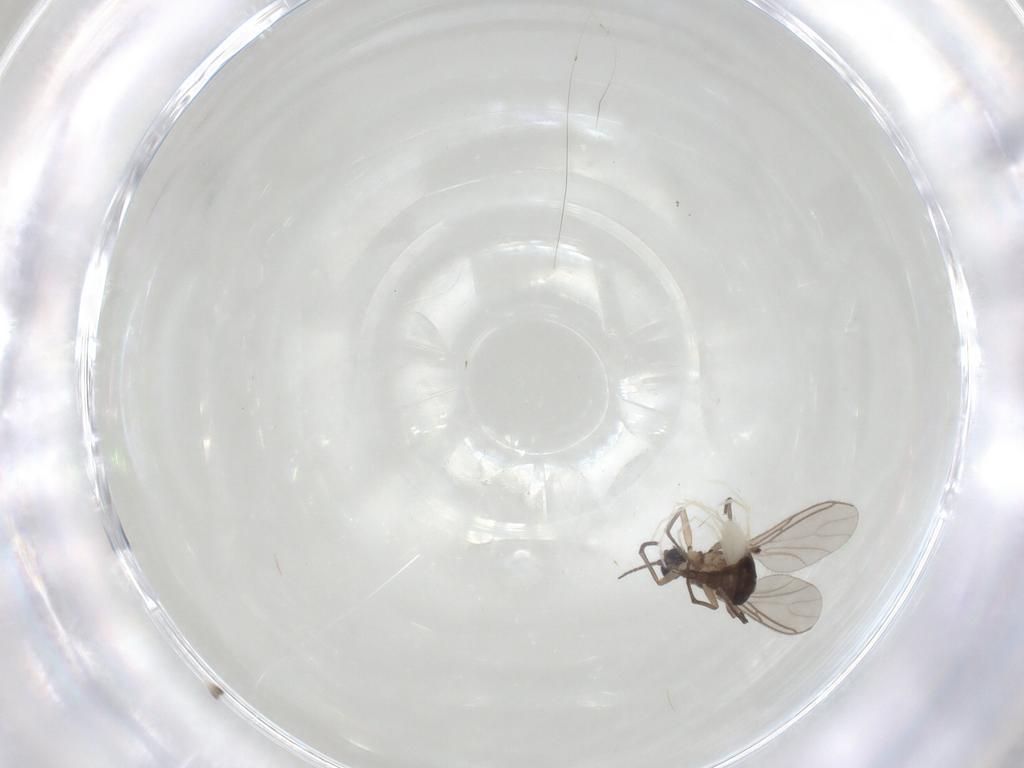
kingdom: Animalia
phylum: Arthropoda
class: Insecta
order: Diptera
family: Sciaridae
